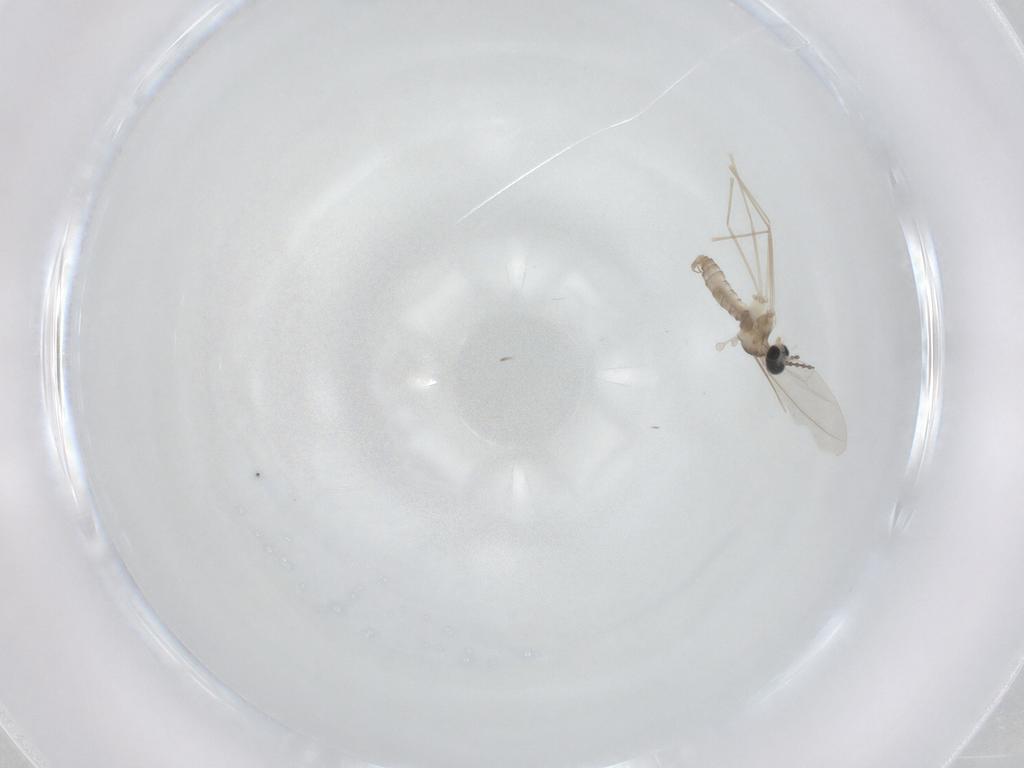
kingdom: Animalia
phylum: Arthropoda
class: Insecta
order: Diptera
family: Cecidomyiidae
